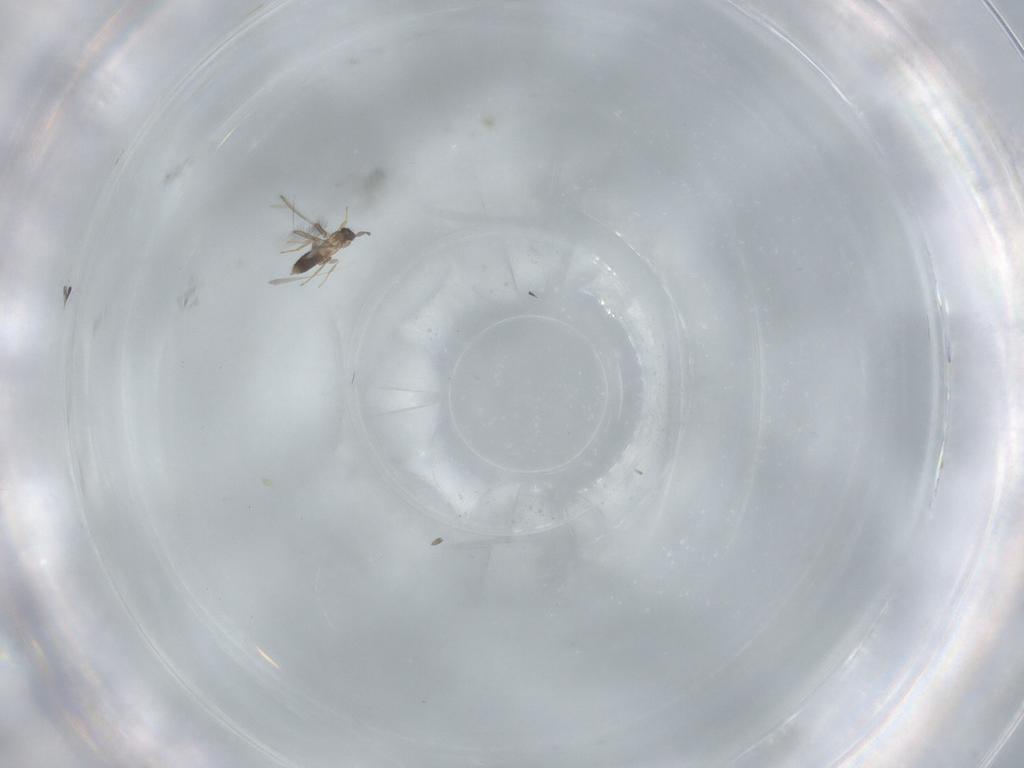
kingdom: Animalia
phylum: Arthropoda
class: Insecta
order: Hymenoptera
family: Mymaridae
